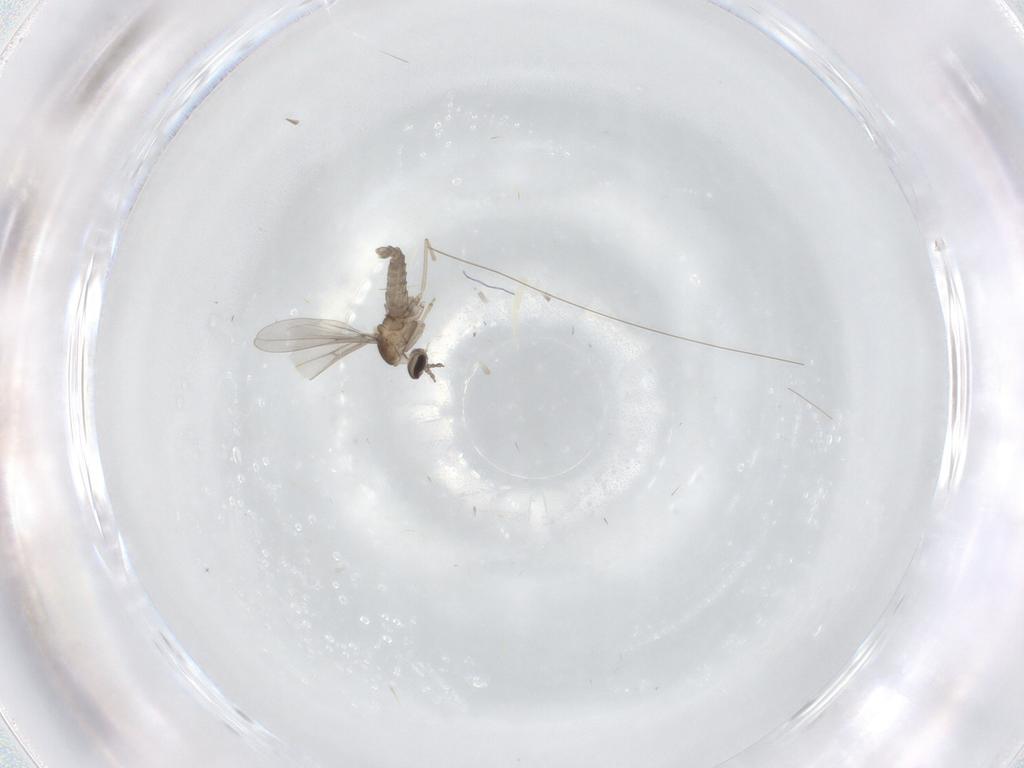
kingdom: Animalia
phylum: Arthropoda
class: Insecta
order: Diptera
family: Cecidomyiidae
